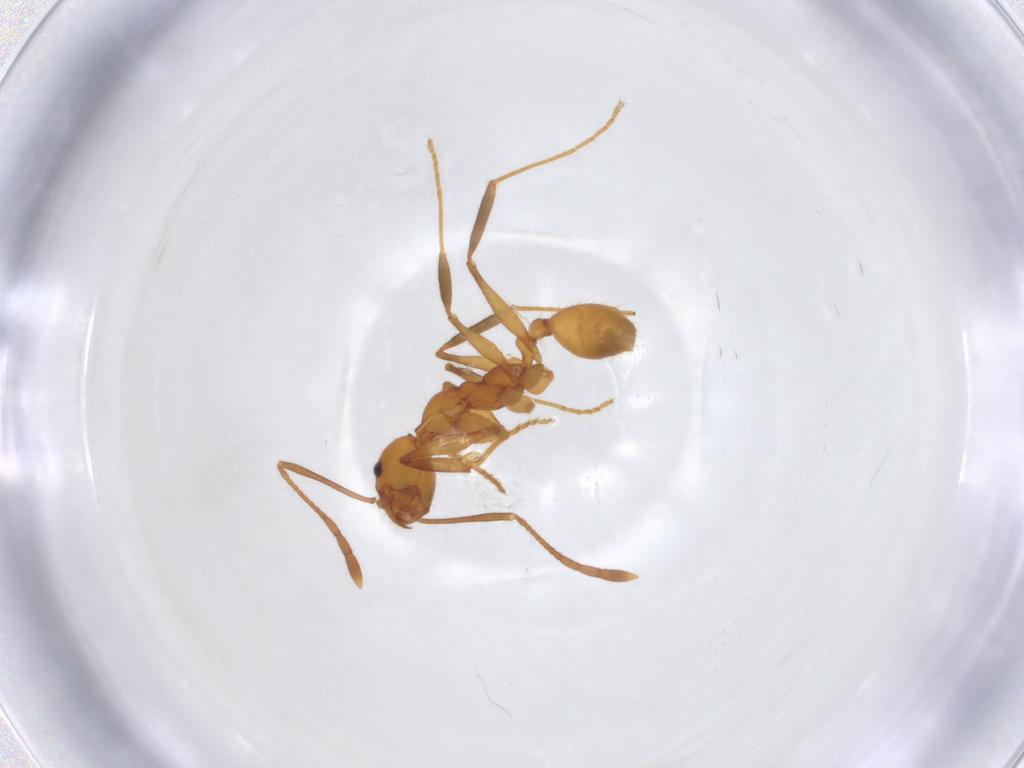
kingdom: Animalia
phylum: Arthropoda
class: Insecta
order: Hymenoptera
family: Formicidae
